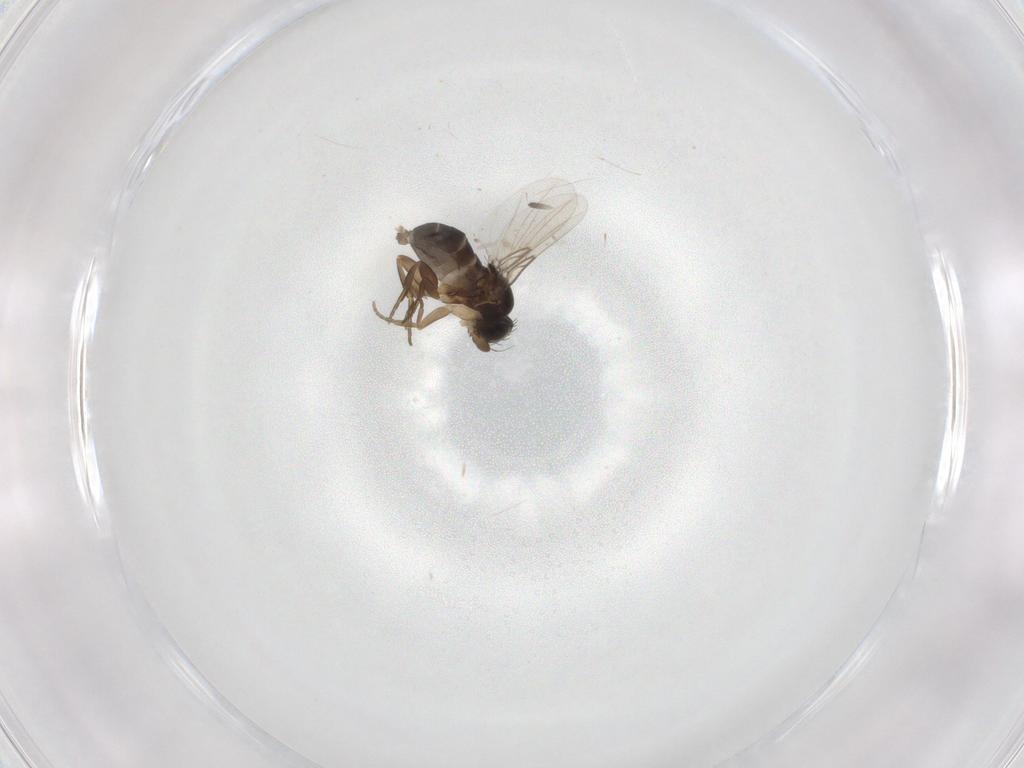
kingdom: Animalia
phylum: Arthropoda
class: Insecta
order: Diptera
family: Phoridae
